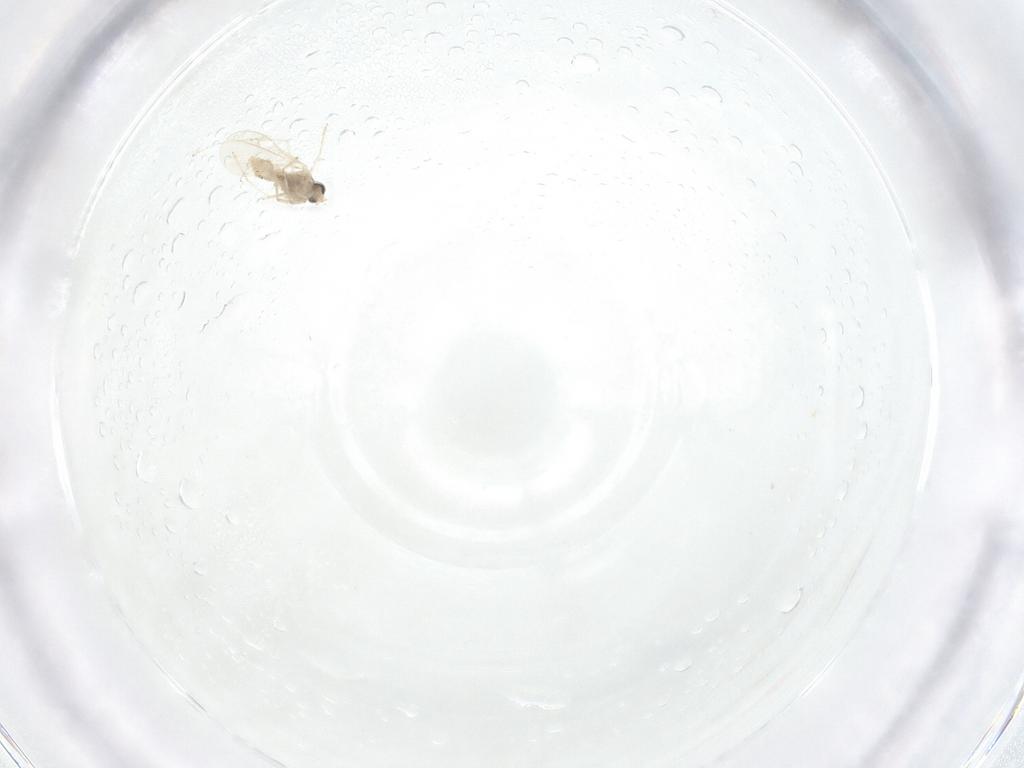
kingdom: Animalia
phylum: Arthropoda
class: Insecta
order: Diptera
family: Cecidomyiidae
